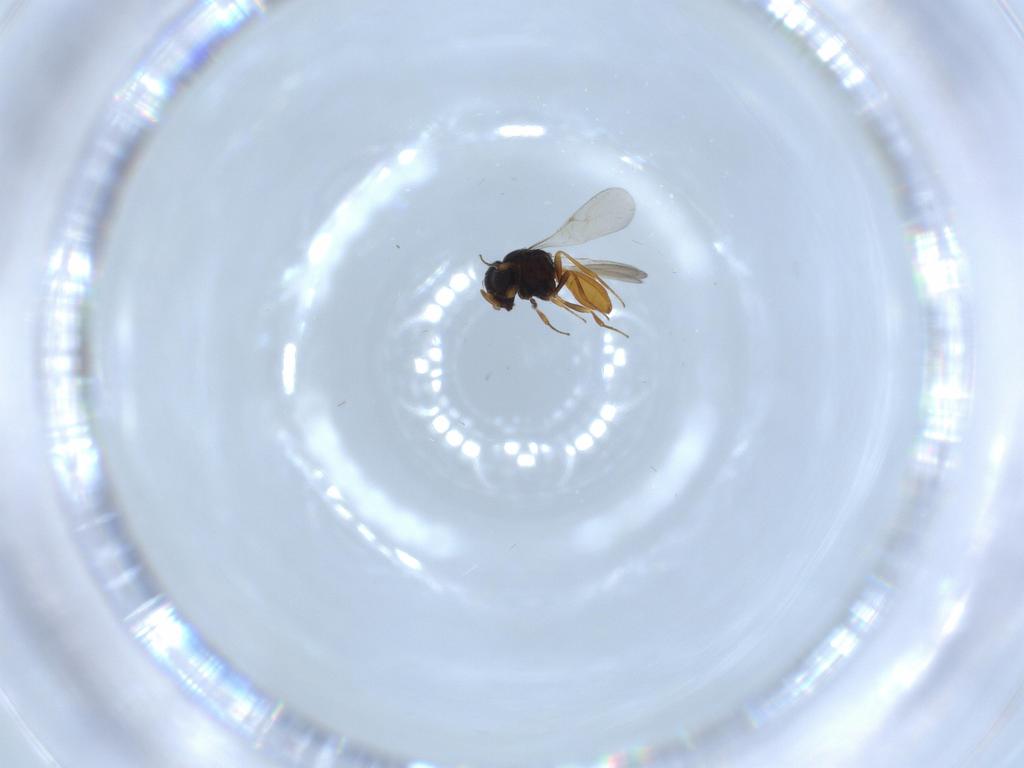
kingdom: Animalia
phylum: Arthropoda
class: Insecta
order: Hymenoptera
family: Scelionidae
